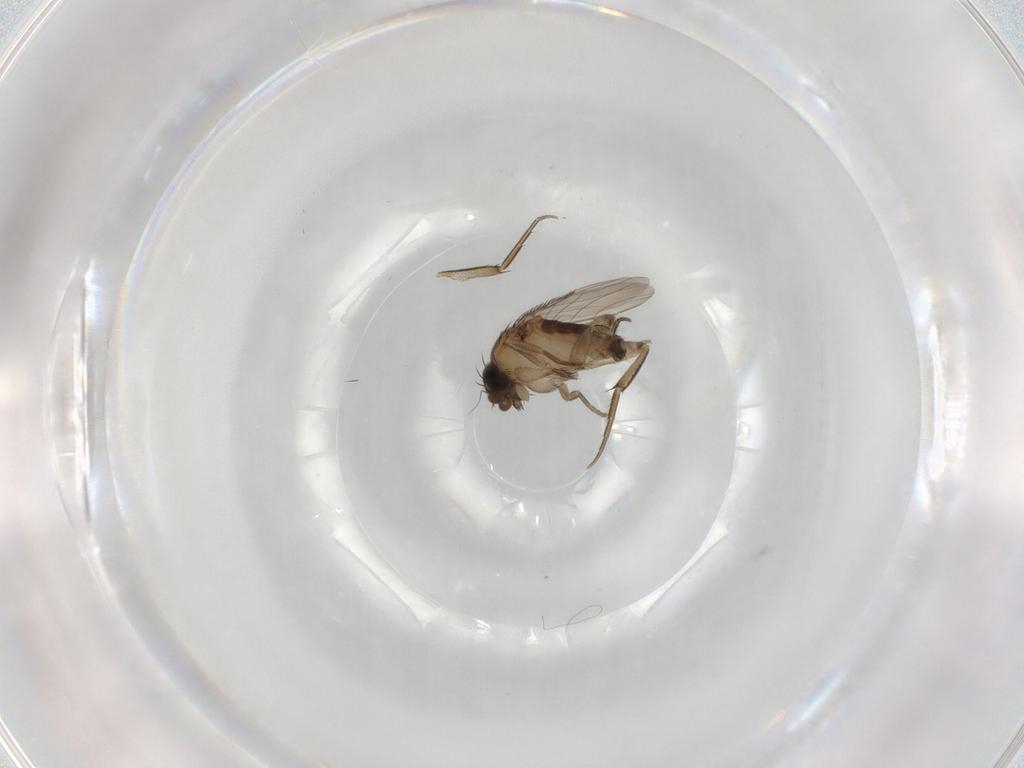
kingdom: Animalia
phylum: Arthropoda
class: Insecta
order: Diptera
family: Phoridae
